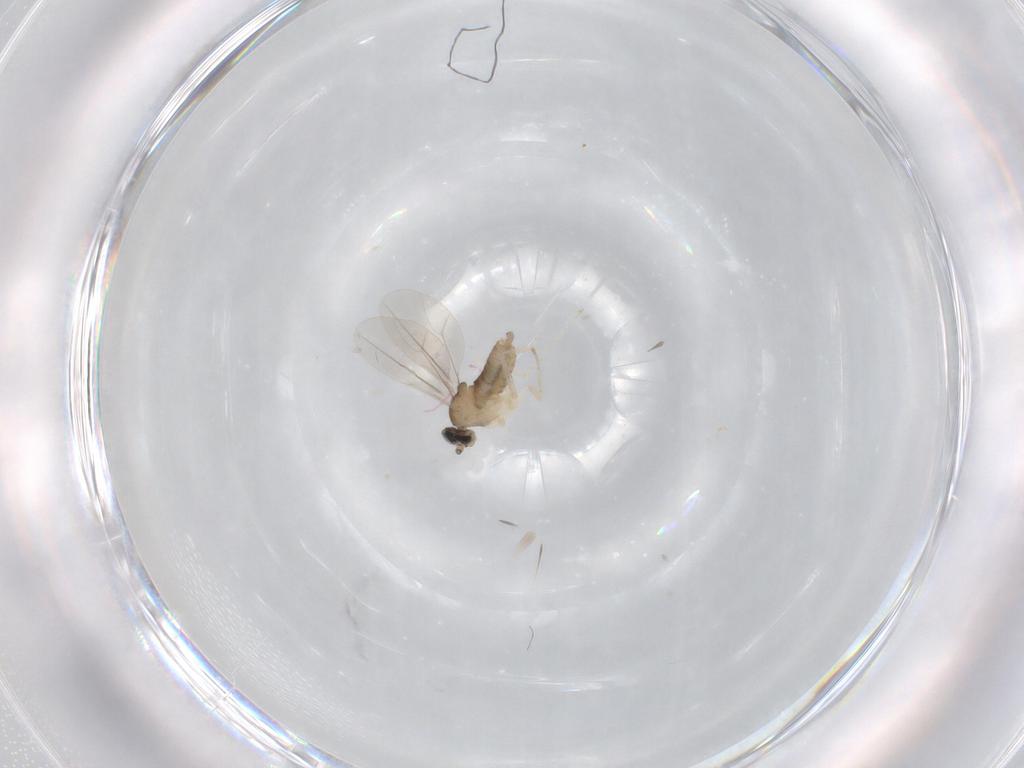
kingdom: Animalia
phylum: Arthropoda
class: Insecta
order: Diptera
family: Cecidomyiidae
